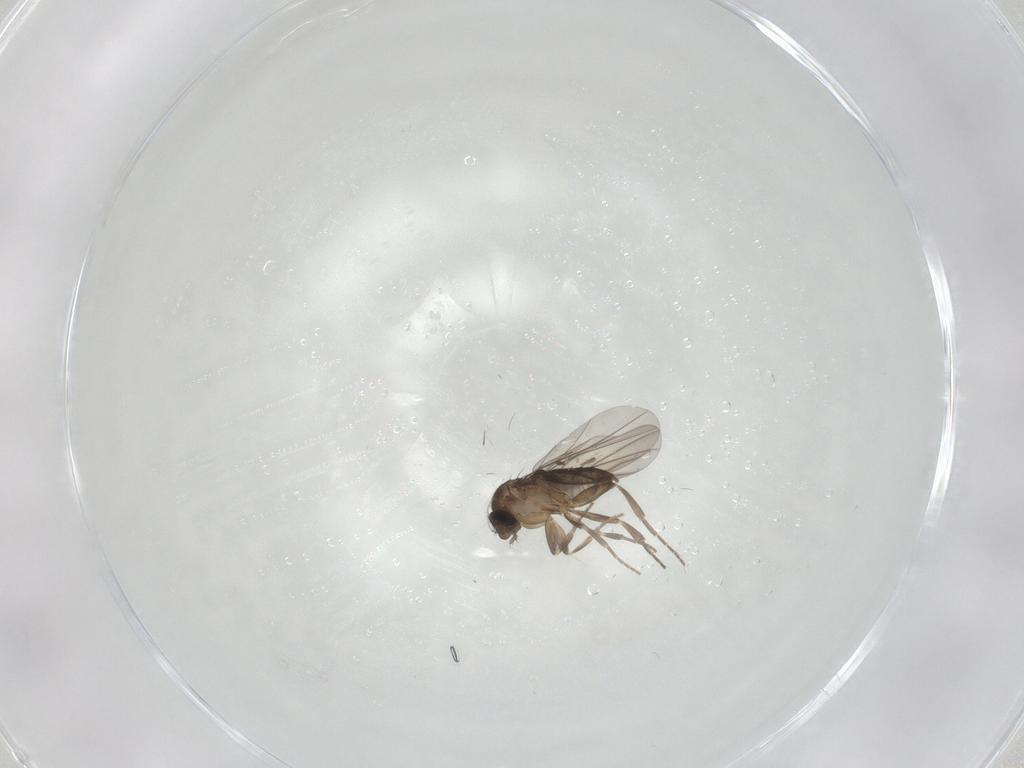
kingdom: Animalia
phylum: Arthropoda
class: Insecta
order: Diptera
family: Phoridae
